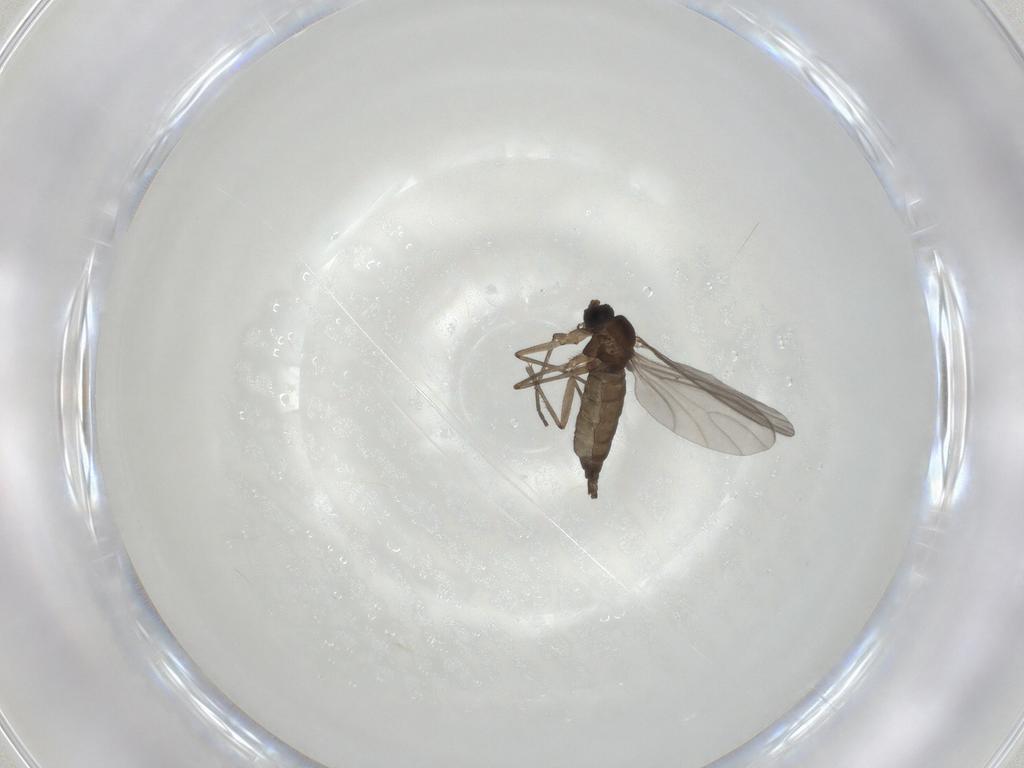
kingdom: Animalia
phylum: Arthropoda
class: Insecta
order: Diptera
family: Sciaridae
